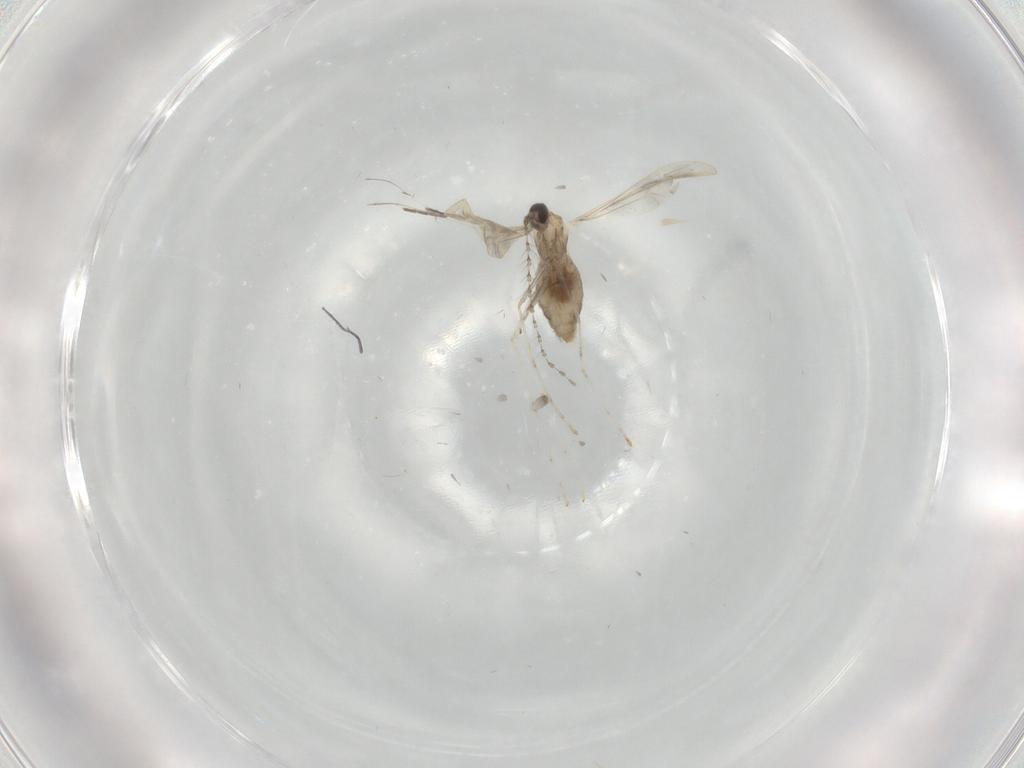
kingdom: Animalia
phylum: Arthropoda
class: Insecta
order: Diptera
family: Cecidomyiidae
